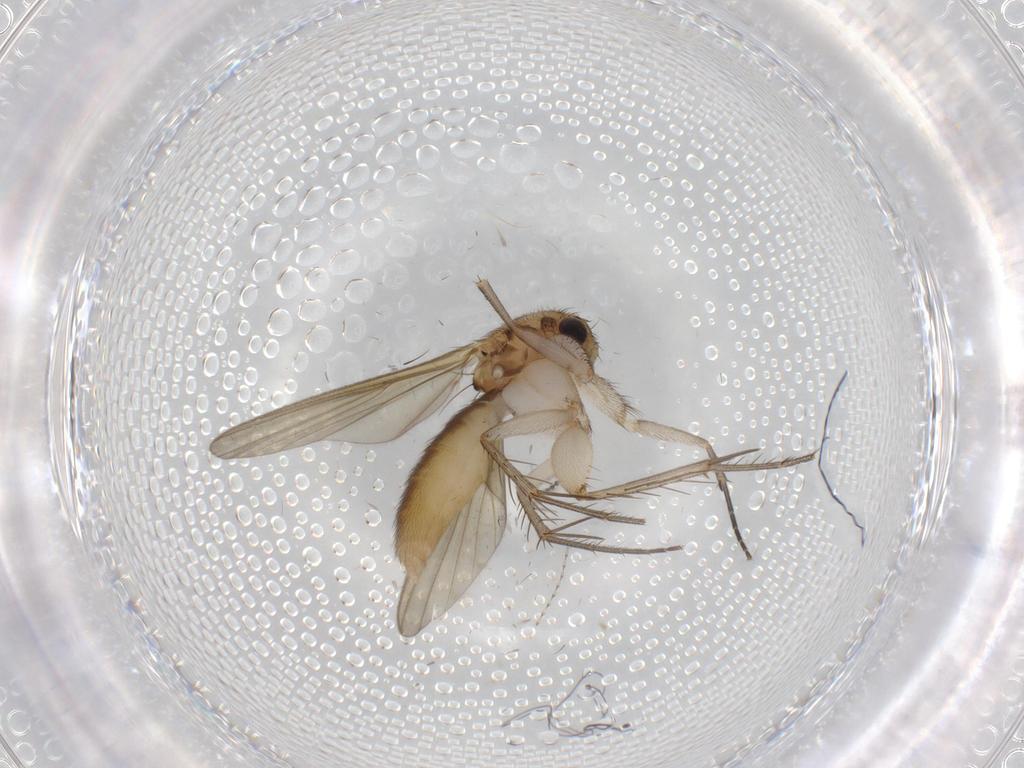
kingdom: Animalia
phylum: Arthropoda
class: Insecta
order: Diptera
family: Mycetophilidae
